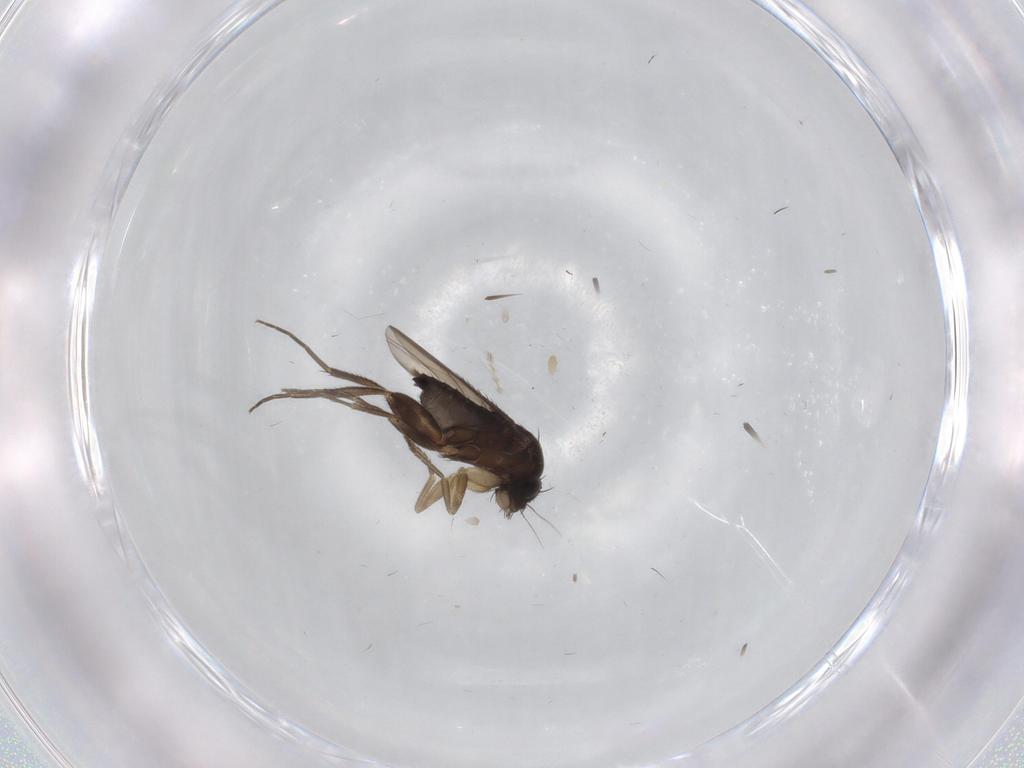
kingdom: Animalia
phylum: Arthropoda
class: Insecta
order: Diptera
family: Phoridae
